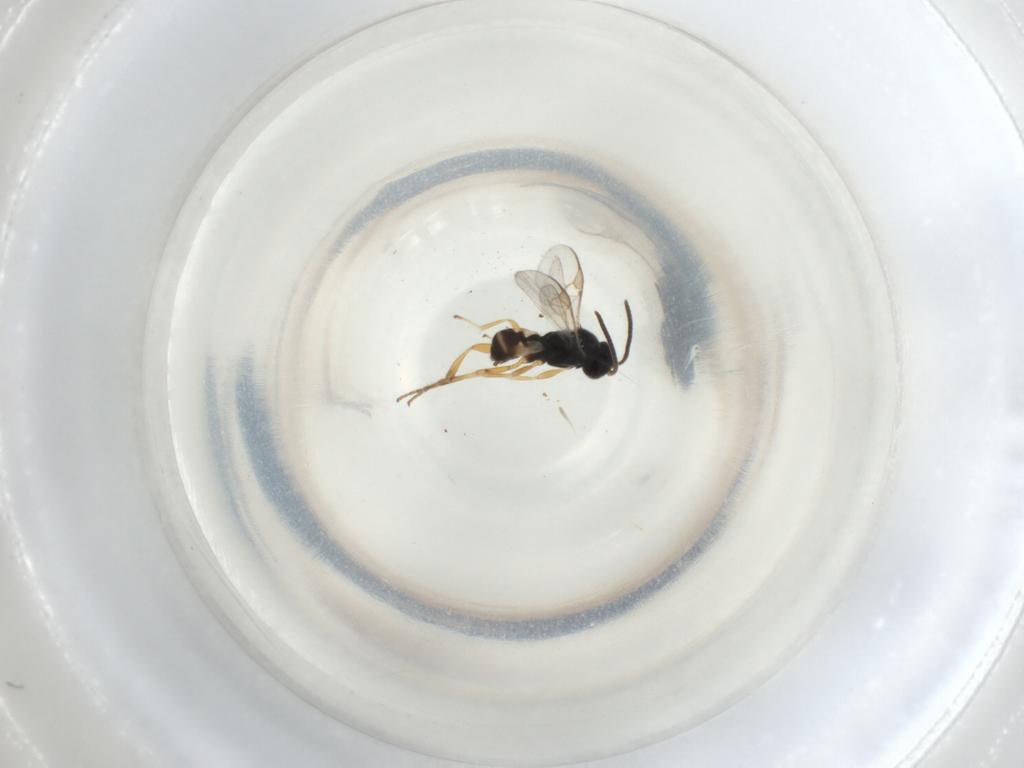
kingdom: Animalia
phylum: Arthropoda
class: Insecta
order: Hymenoptera
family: Braconidae
